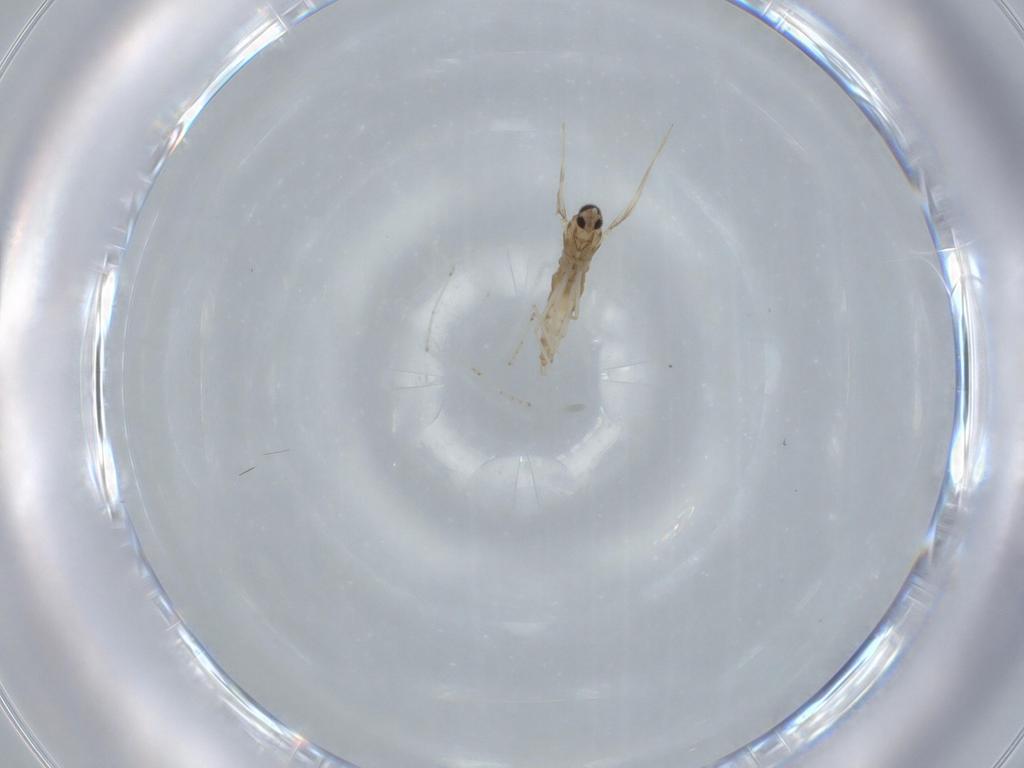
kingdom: Animalia
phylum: Arthropoda
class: Insecta
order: Diptera
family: Cecidomyiidae
